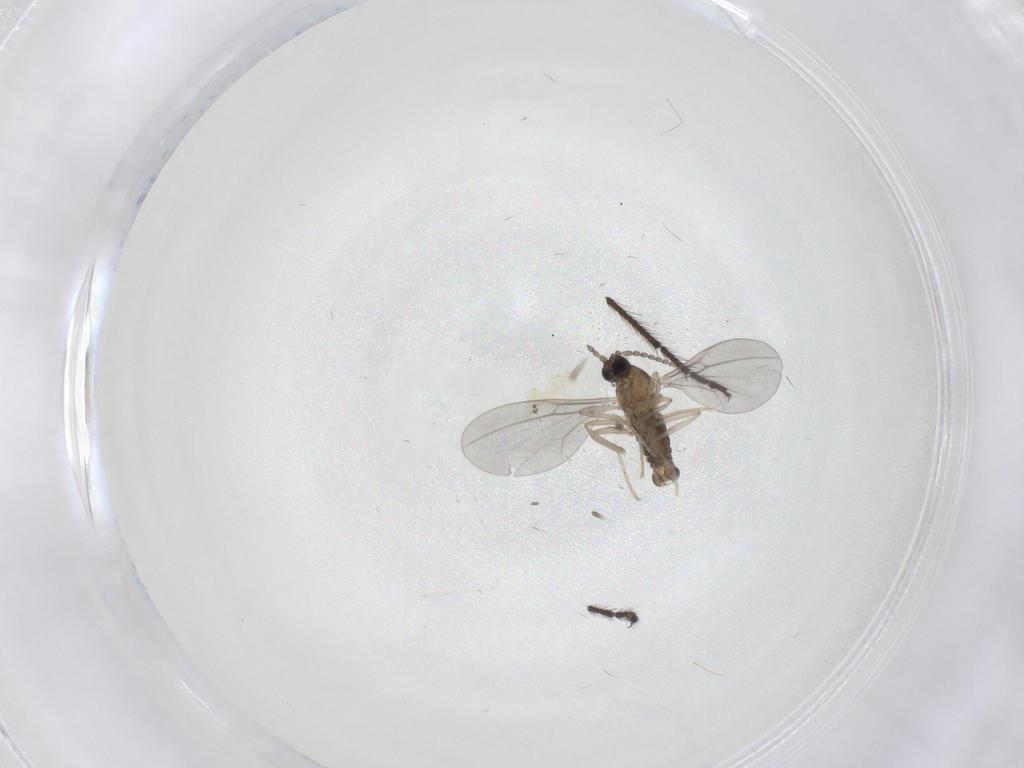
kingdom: Animalia
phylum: Arthropoda
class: Insecta
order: Diptera
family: Cecidomyiidae
